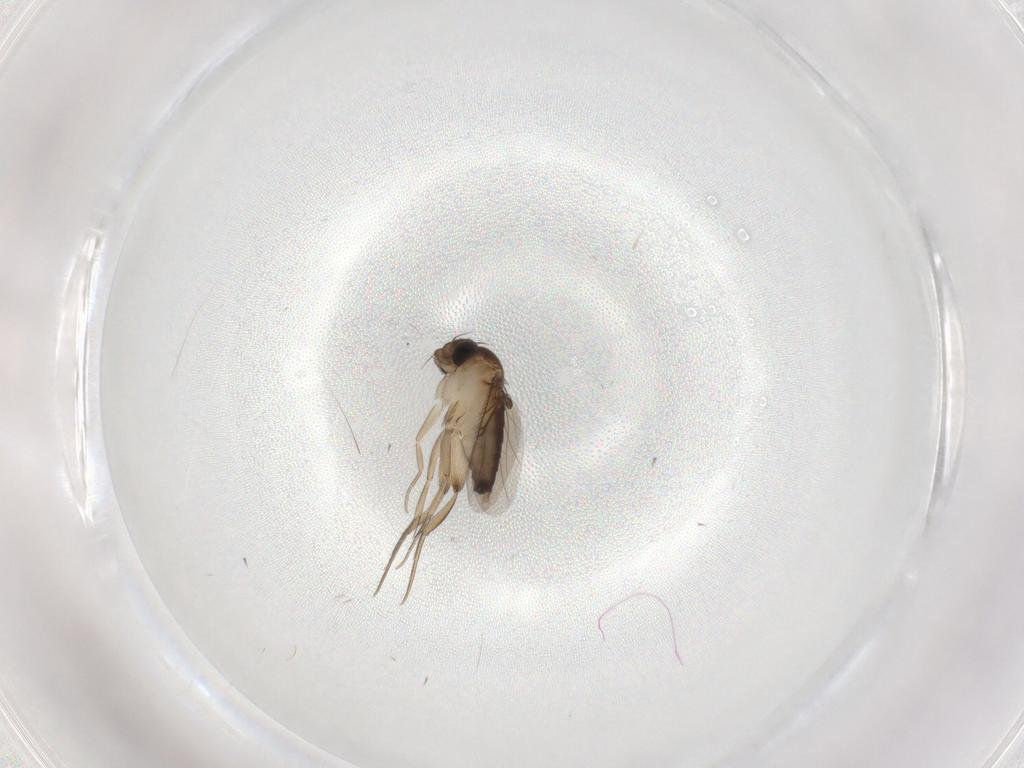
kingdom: Animalia
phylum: Arthropoda
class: Insecta
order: Diptera
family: Phoridae
